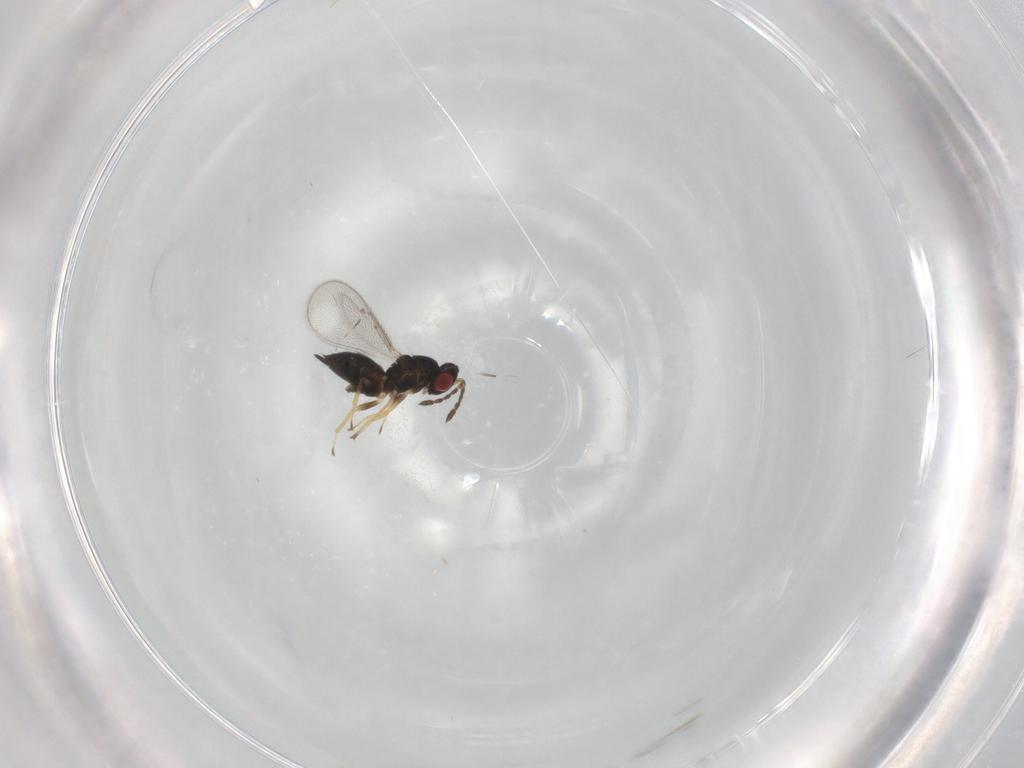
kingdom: Animalia
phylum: Arthropoda
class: Insecta
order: Hymenoptera
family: Eulophidae
